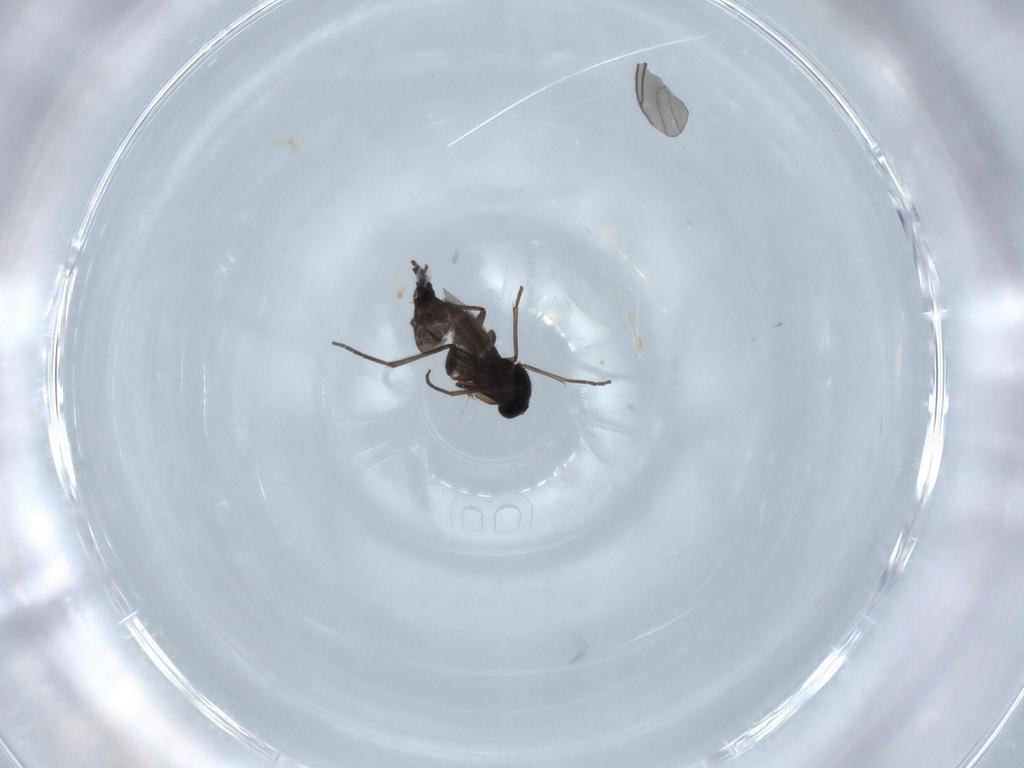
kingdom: Animalia
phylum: Arthropoda
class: Insecta
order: Diptera
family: Sciaridae
